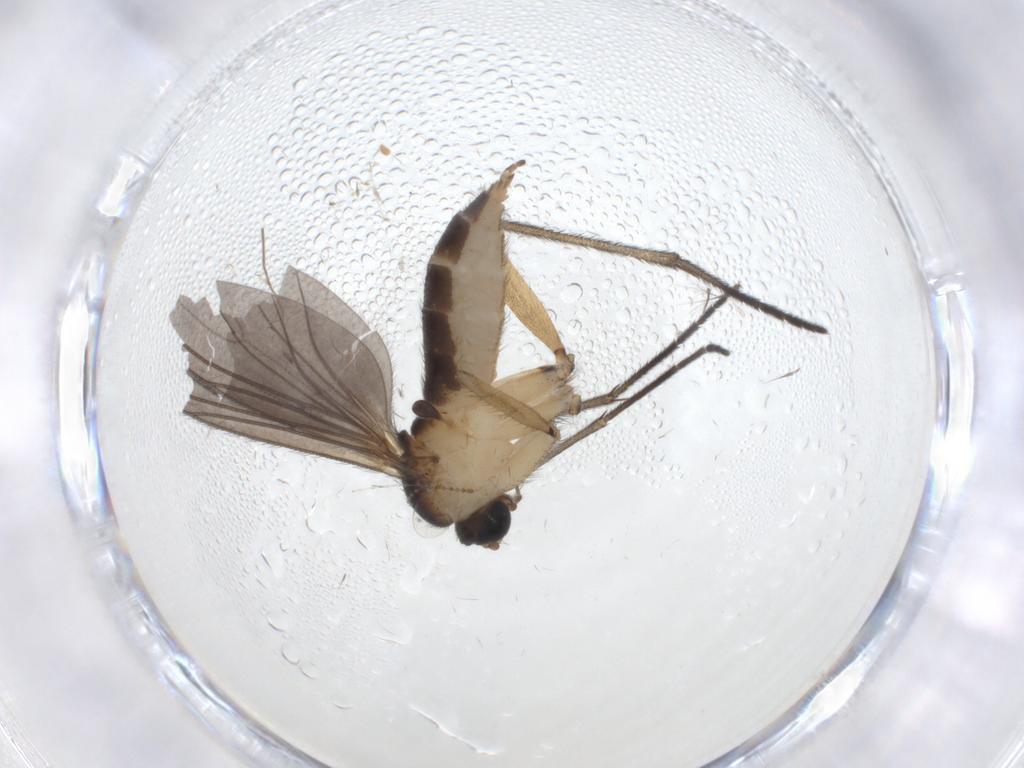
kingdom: Animalia
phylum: Arthropoda
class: Insecta
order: Diptera
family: Sciaridae
